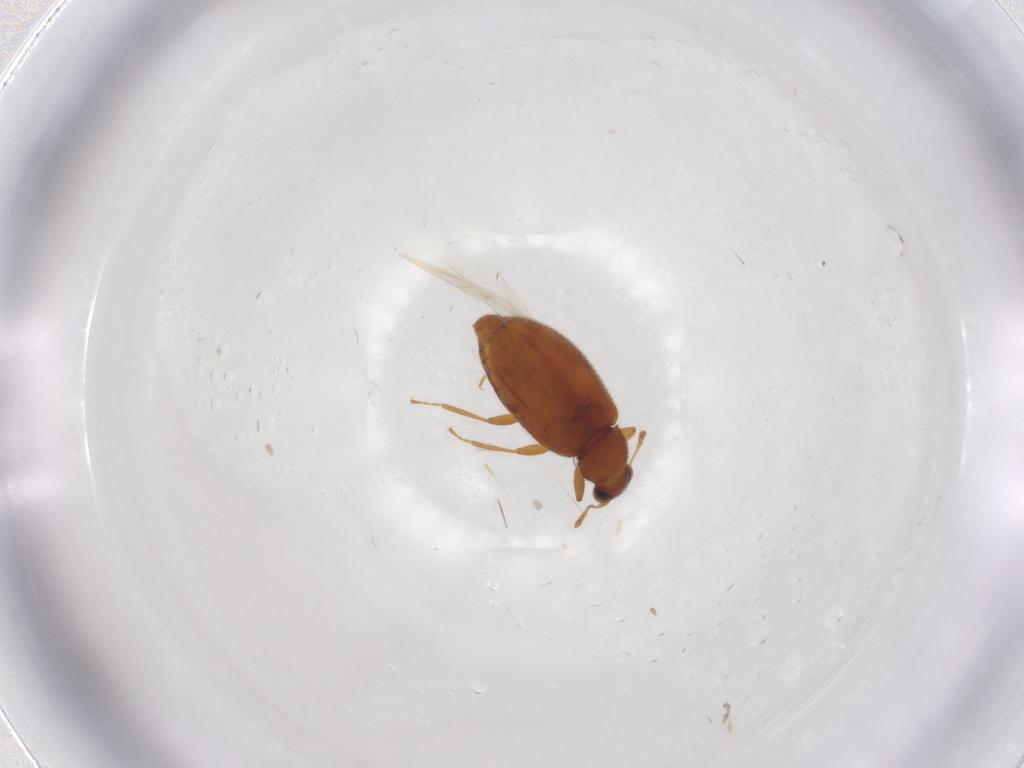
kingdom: Animalia
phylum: Arthropoda
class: Insecta
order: Coleoptera
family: Latridiidae
